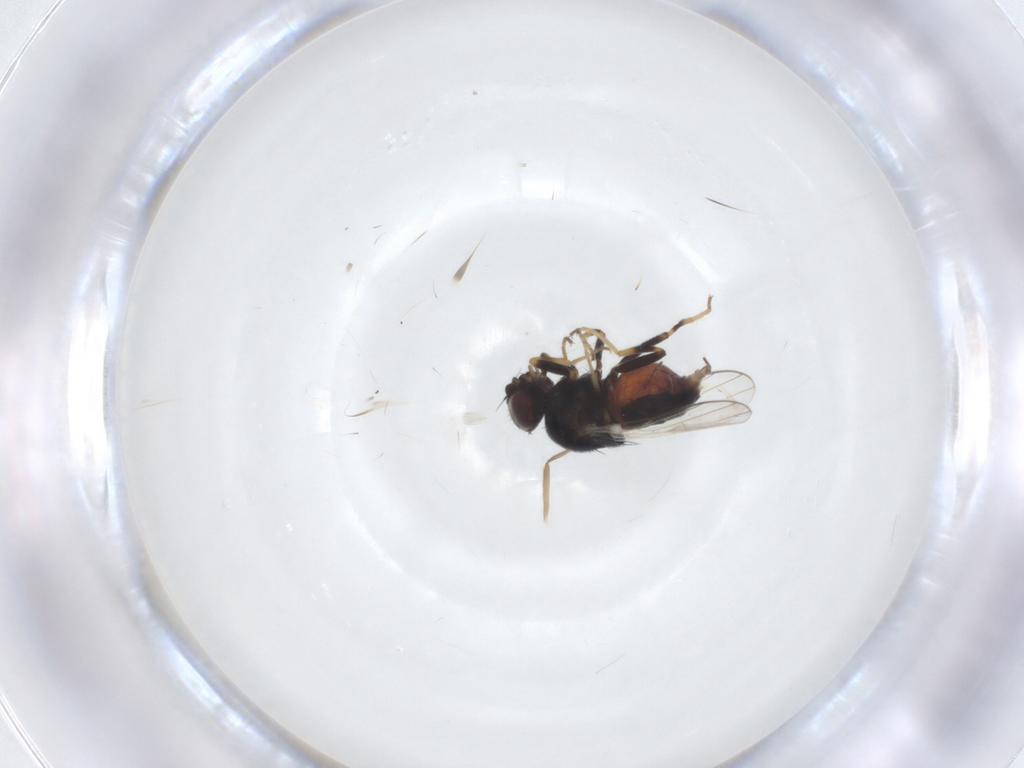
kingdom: Animalia
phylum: Arthropoda
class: Insecta
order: Diptera
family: Chloropidae
